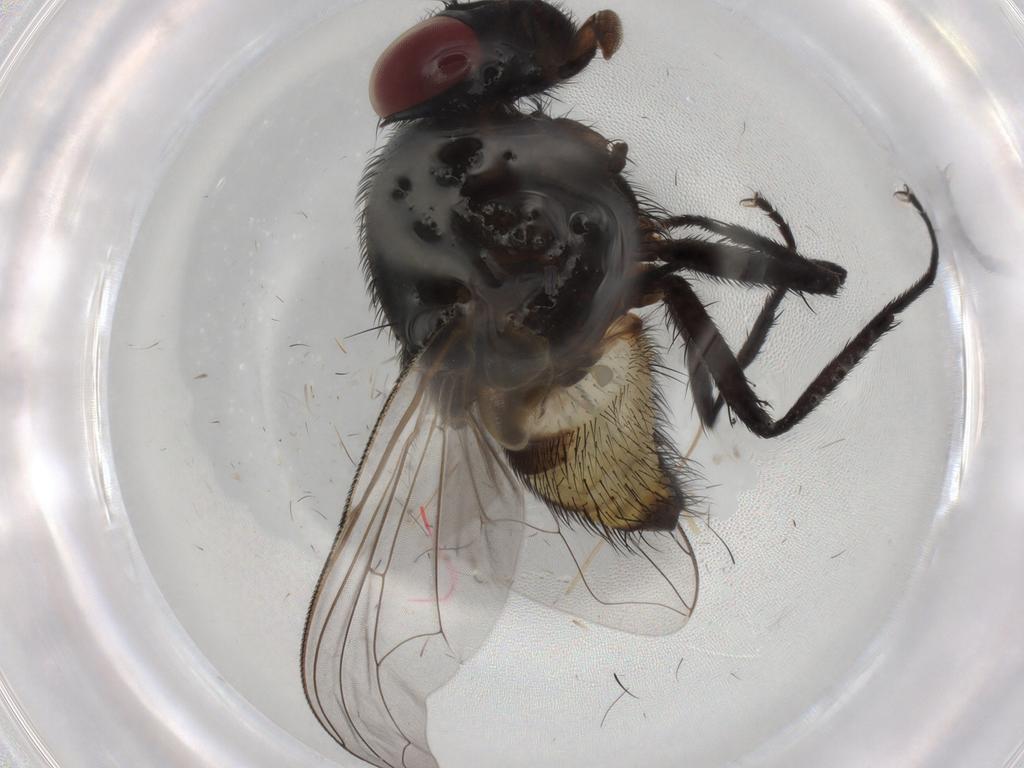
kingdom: Animalia
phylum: Arthropoda
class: Insecta
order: Diptera
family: Sciaridae
